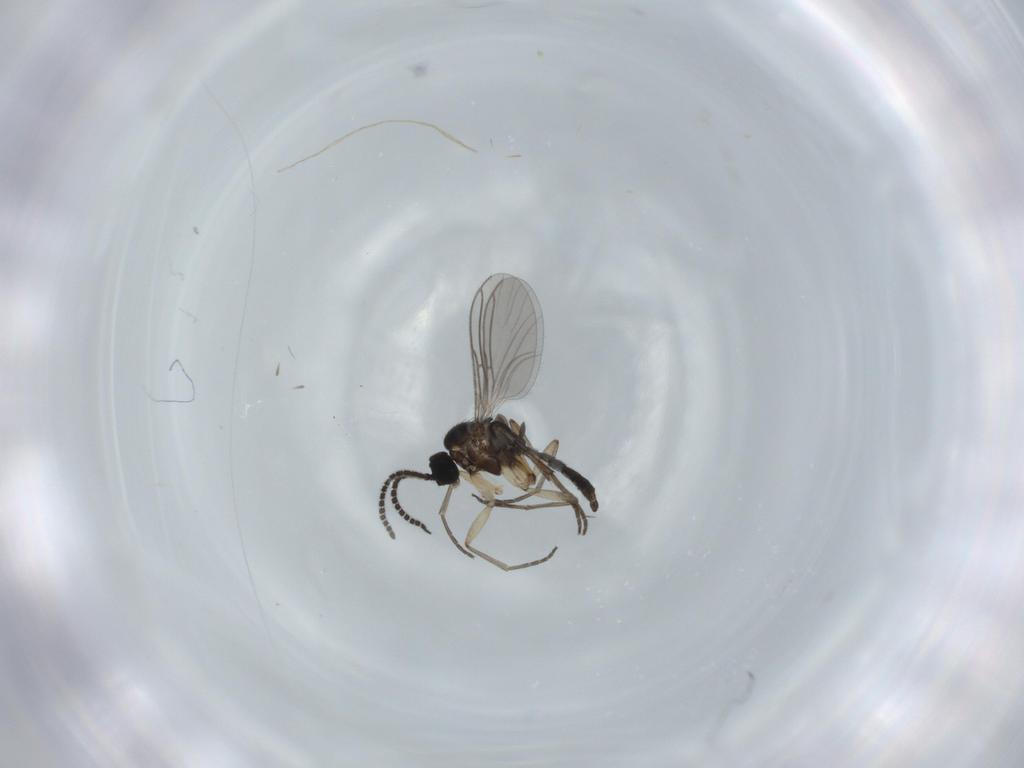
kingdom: Animalia
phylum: Arthropoda
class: Insecta
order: Diptera
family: Sciaridae
